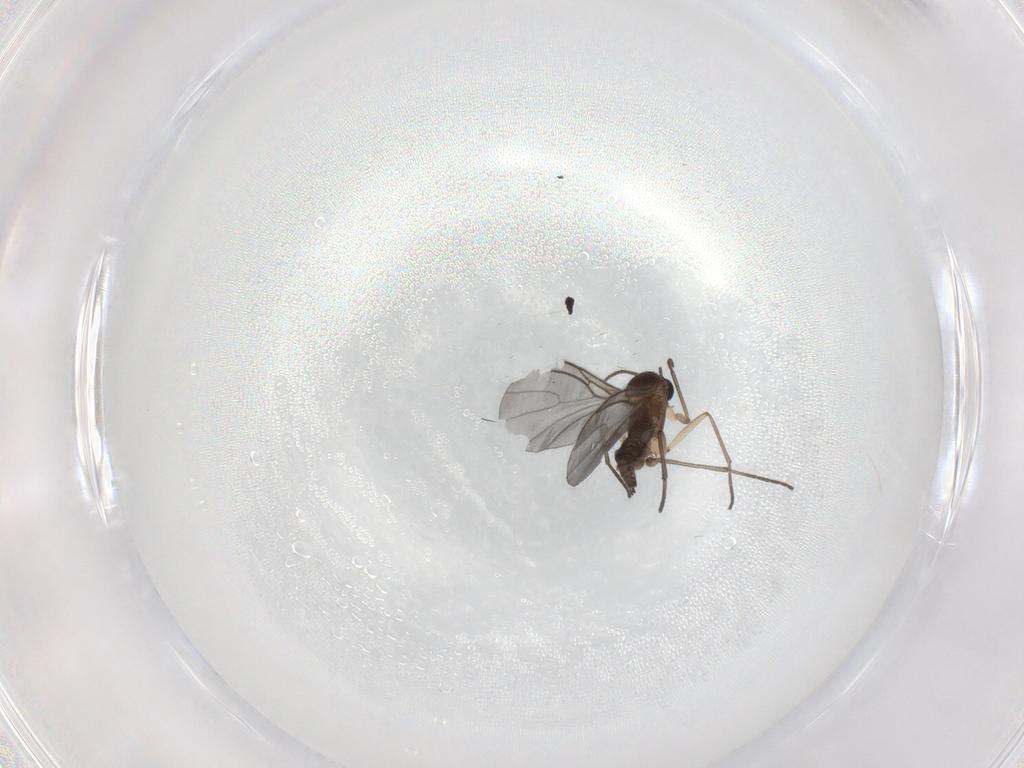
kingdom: Animalia
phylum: Arthropoda
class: Insecta
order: Diptera
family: Sciaridae
